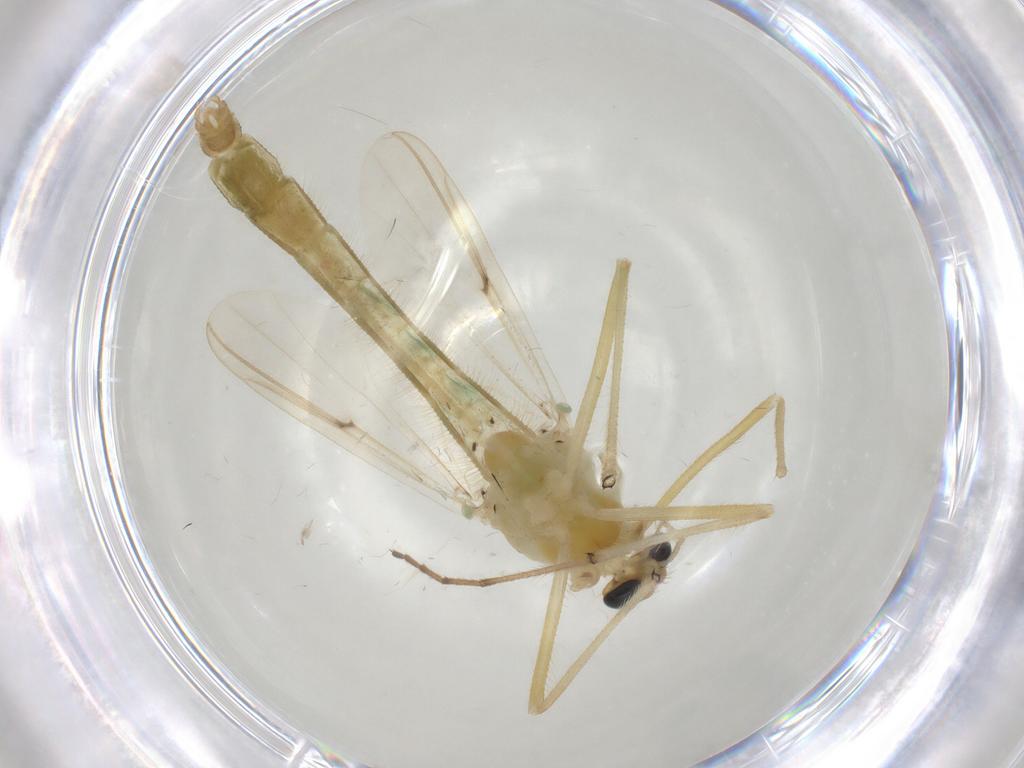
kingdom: Animalia
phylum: Arthropoda
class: Insecta
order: Diptera
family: Chironomidae
